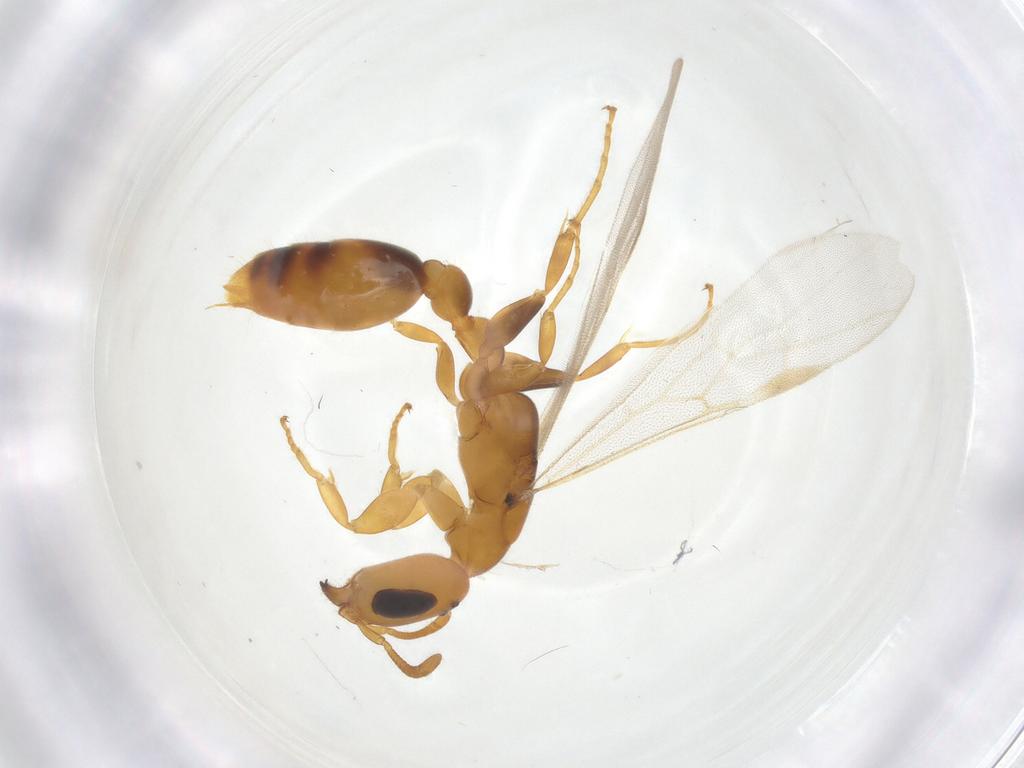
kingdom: Animalia
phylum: Arthropoda
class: Insecta
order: Hymenoptera
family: Formicidae
